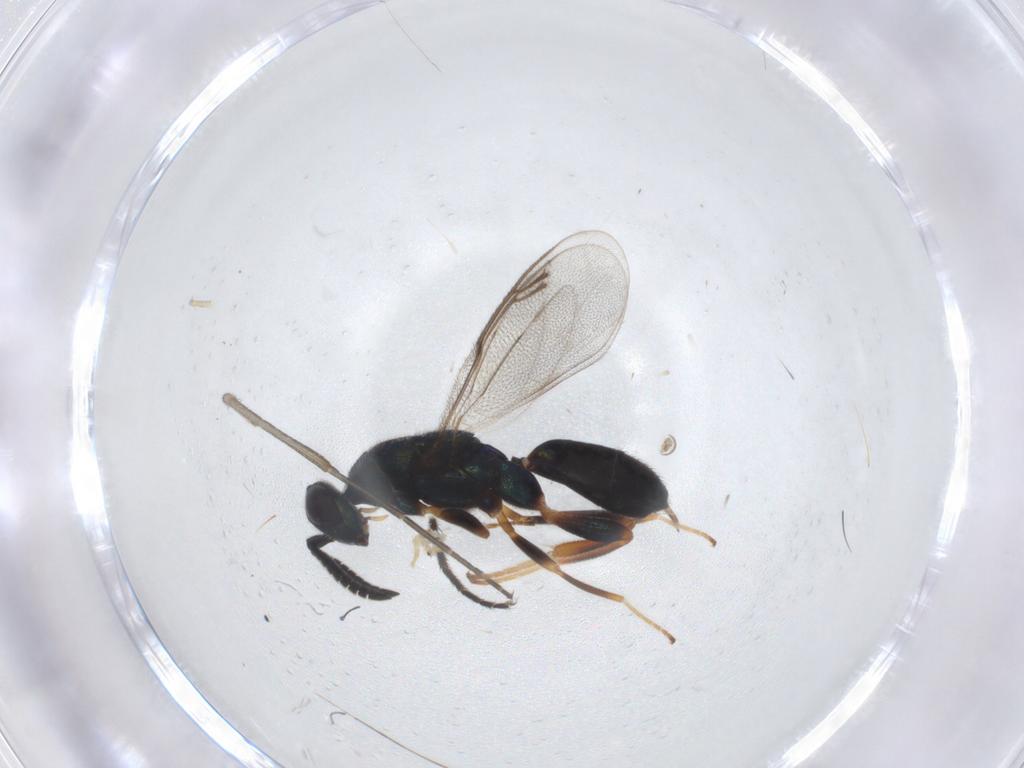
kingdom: Animalia
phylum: Arthropoda
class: Insecta
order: Hymenoptera
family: Cleonyminae
